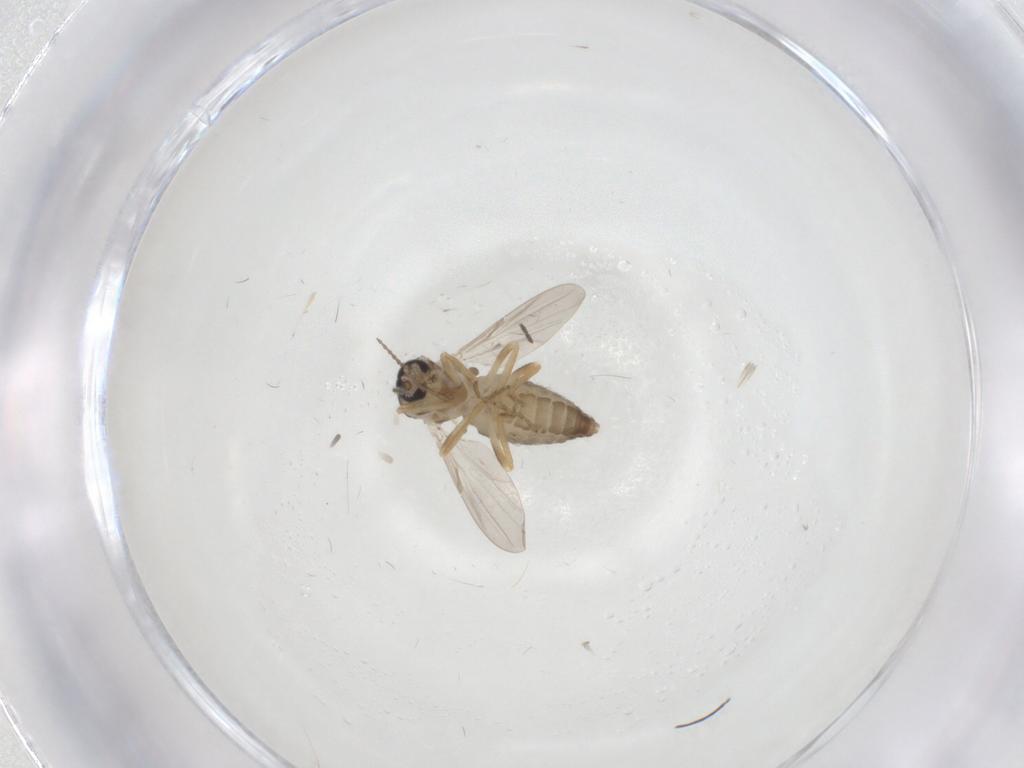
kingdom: Animalia
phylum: Arthropoda
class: Insecta
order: Diptera
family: Ceratopogonidae
